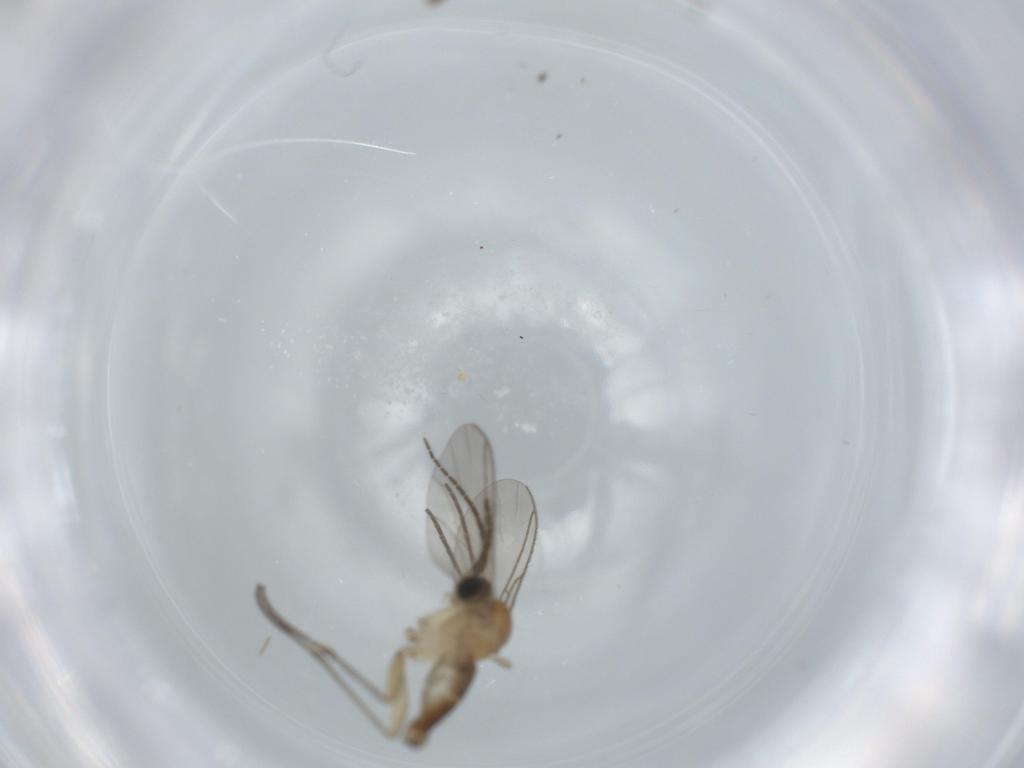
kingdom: Animalia
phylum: Arthropoda
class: Insecta
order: Diptera
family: Sciaridae
